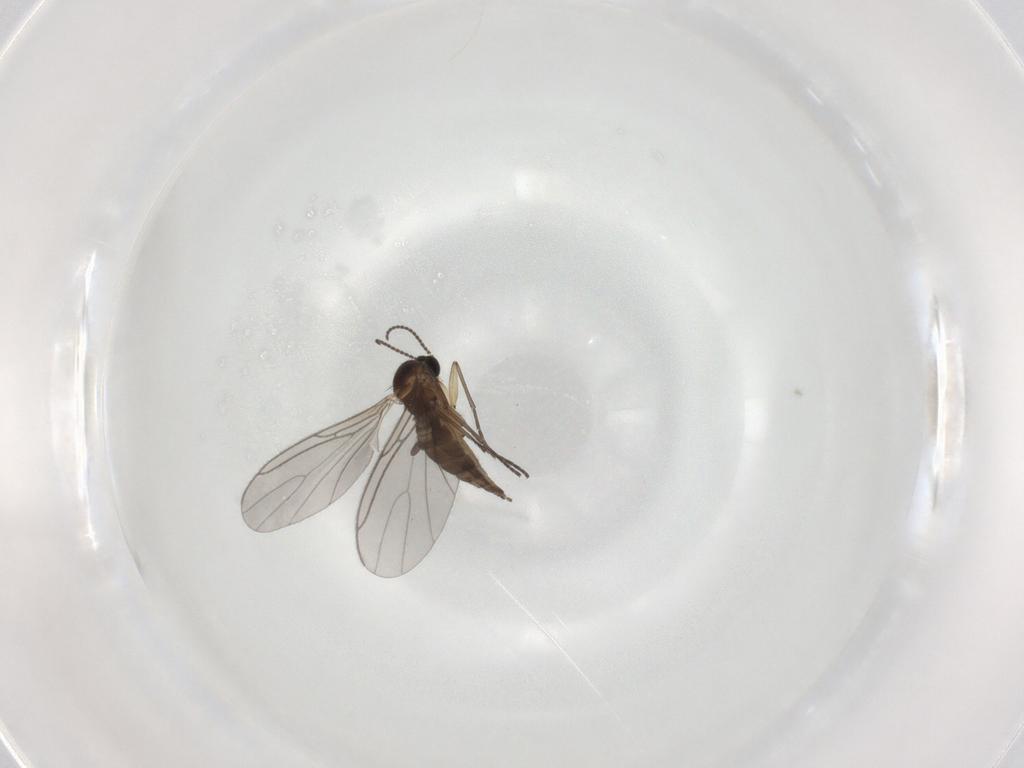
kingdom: Animalia
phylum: Arthropoda
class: Insecta
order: Diptera
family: Sciaridae
